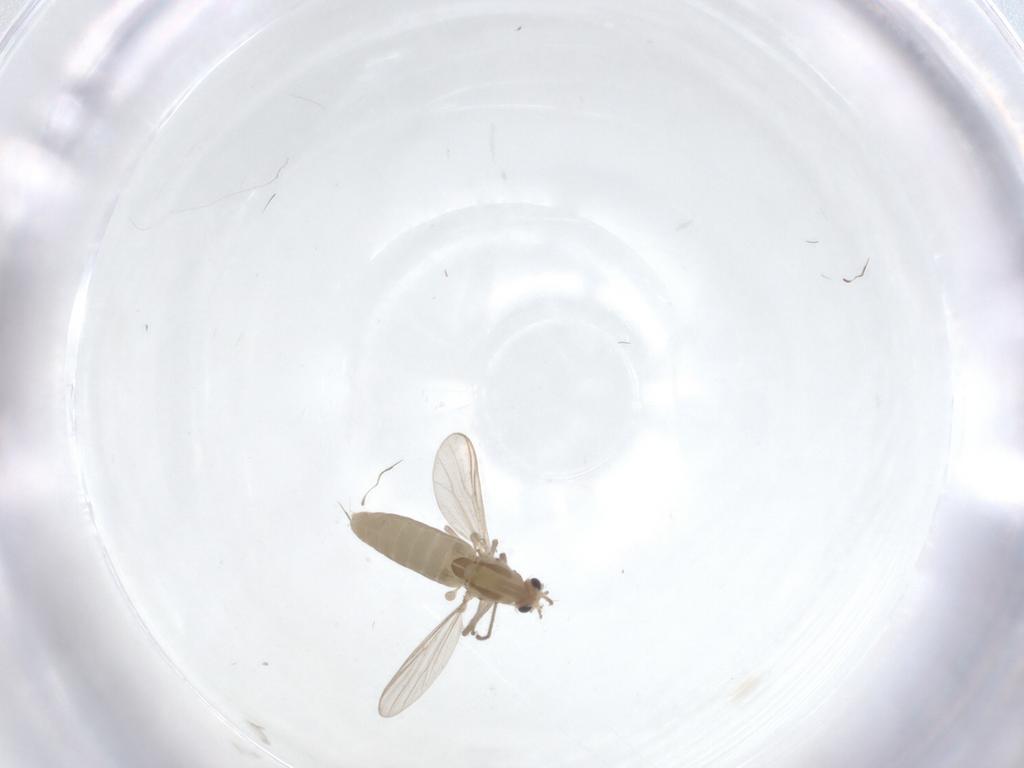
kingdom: Animalia
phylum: Arthropoda
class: Insecta
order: Diptera
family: Chironomidae
